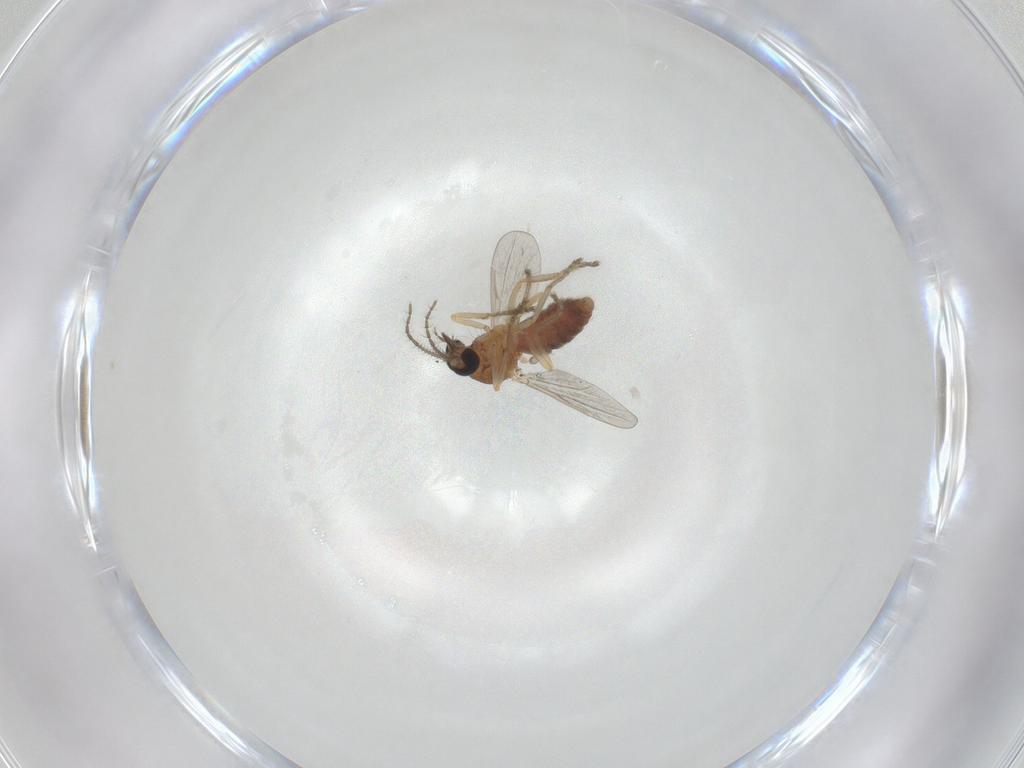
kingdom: Animalia
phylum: Arthropoda
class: Insecta
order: Diptera
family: Ceratopogonidae
